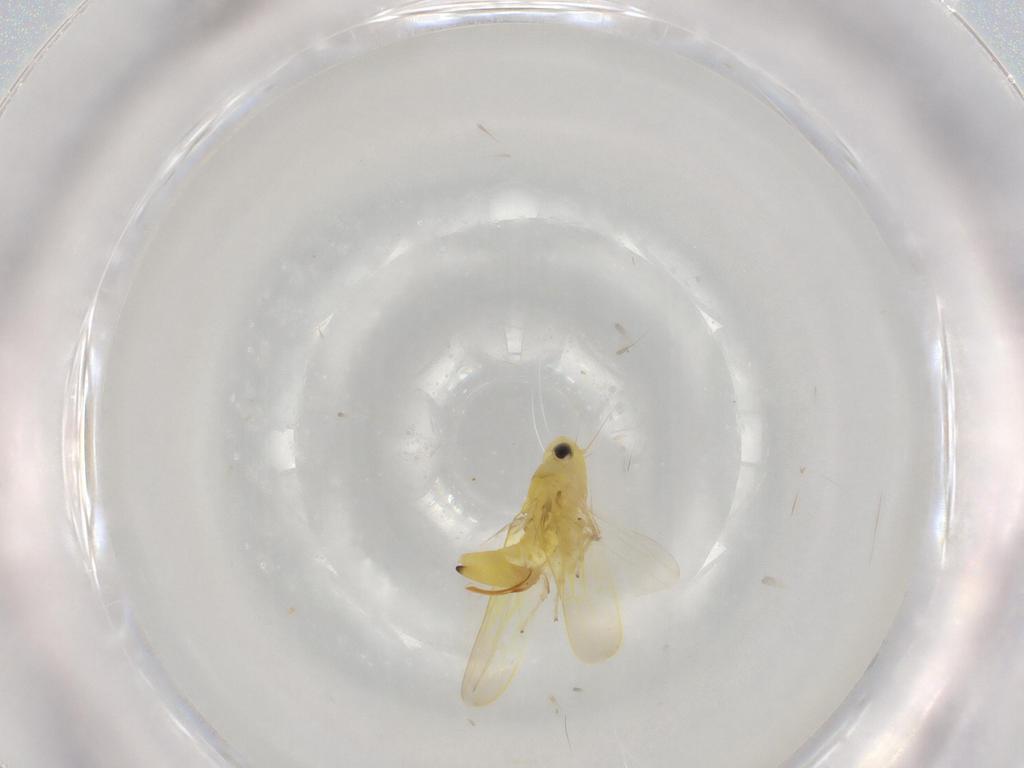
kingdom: Animalia
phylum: Arthropoda
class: Insecta
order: Hemiptera
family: Cicadellidae
